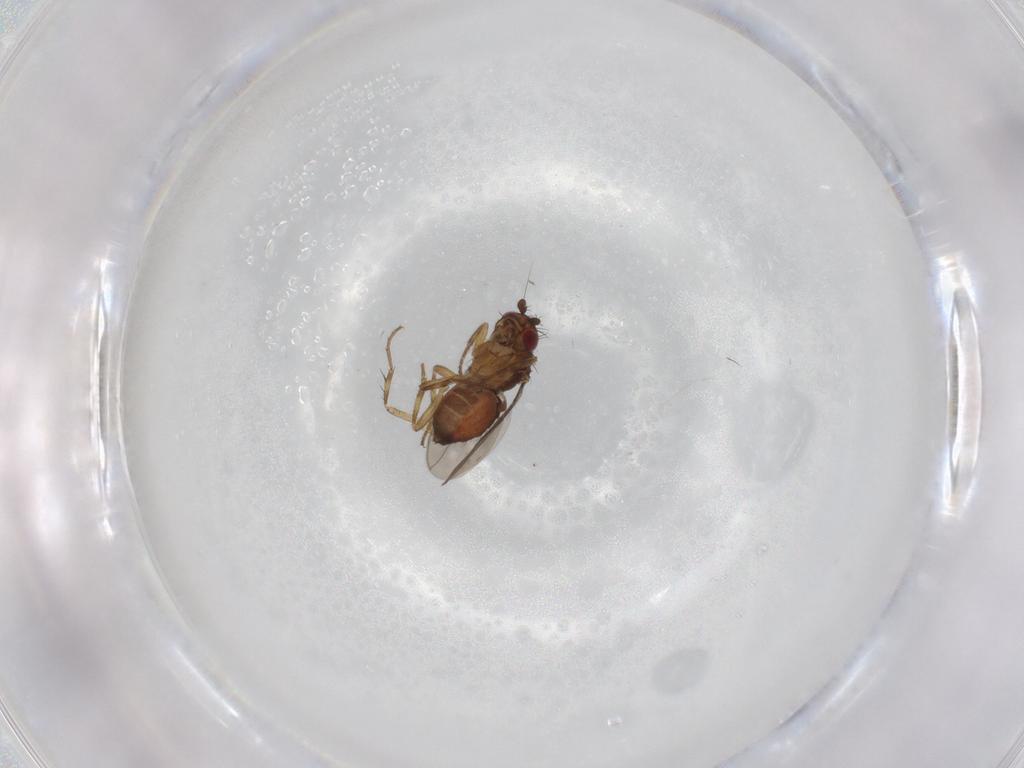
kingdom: Animalia
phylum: Arthropoda
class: Insecta
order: Diptera
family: Sphaeroceridae
